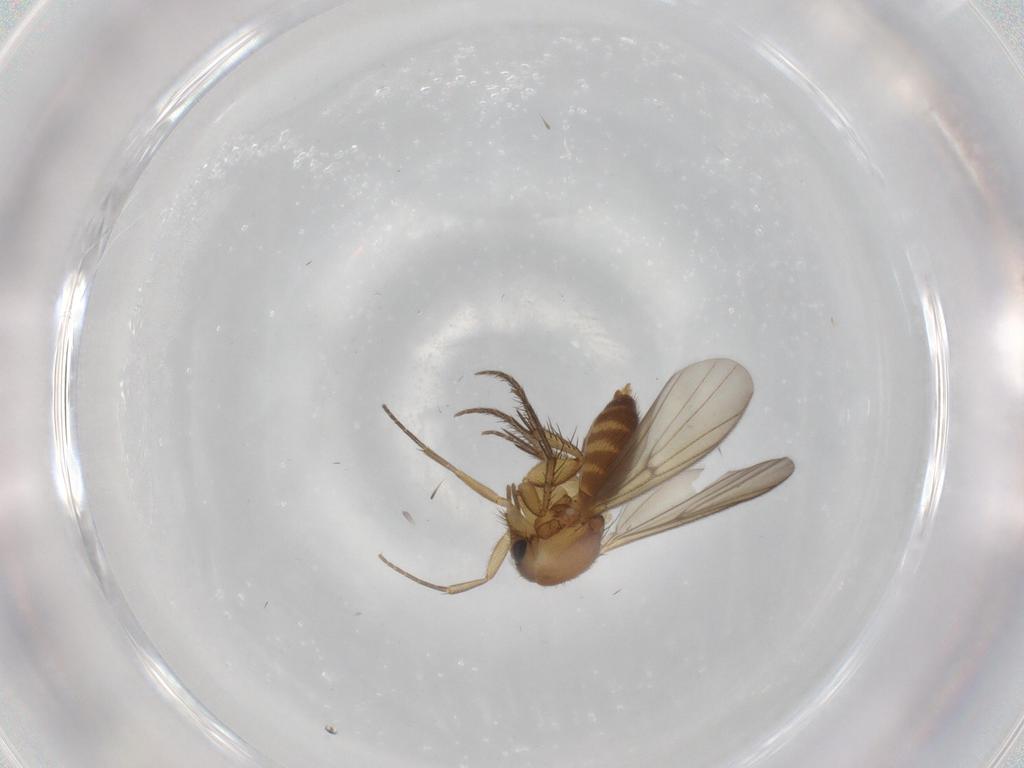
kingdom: Animalia
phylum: Arthropoda
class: Insecta
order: Diptera
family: Cecidomyiidae
